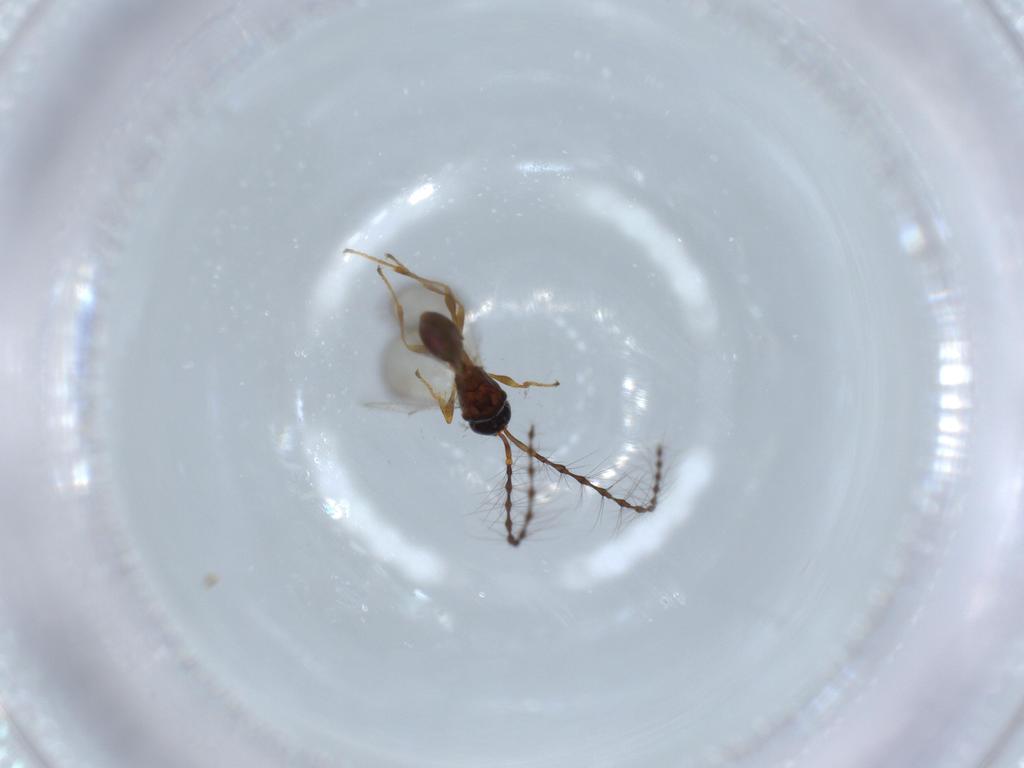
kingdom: Animalia
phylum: Arthropoda
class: Insecta
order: Hymenoptera
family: Diapriidae
